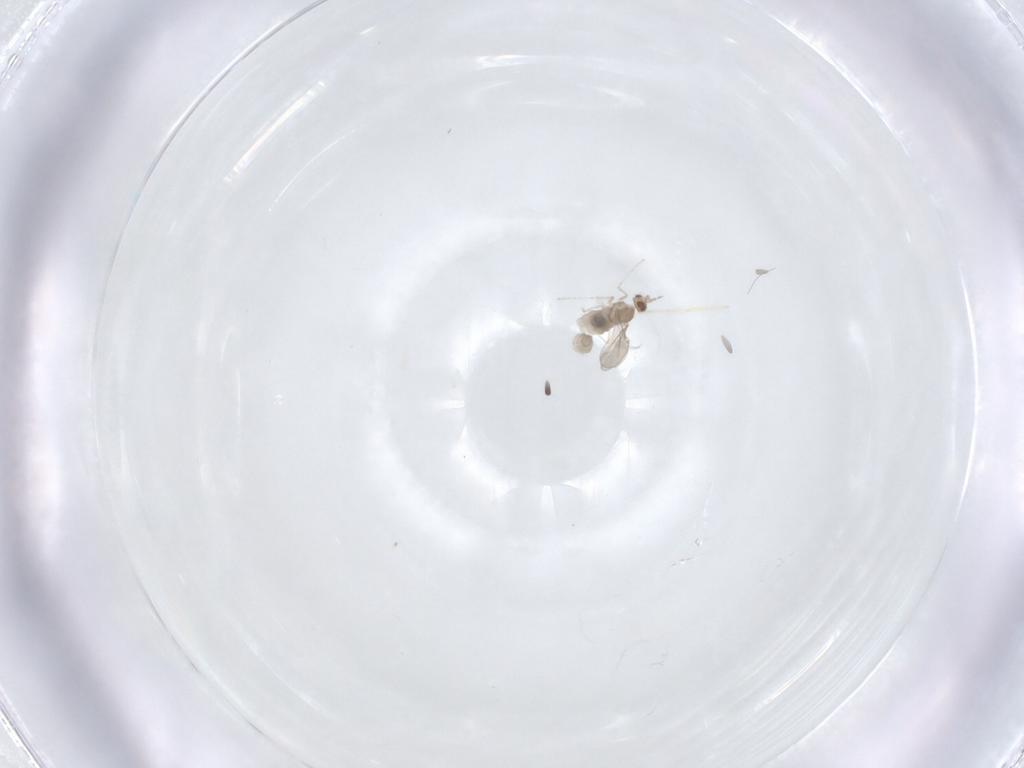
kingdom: Animalia
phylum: Arthropoda
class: Insecta
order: Diptera
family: Cecidomyiidae
